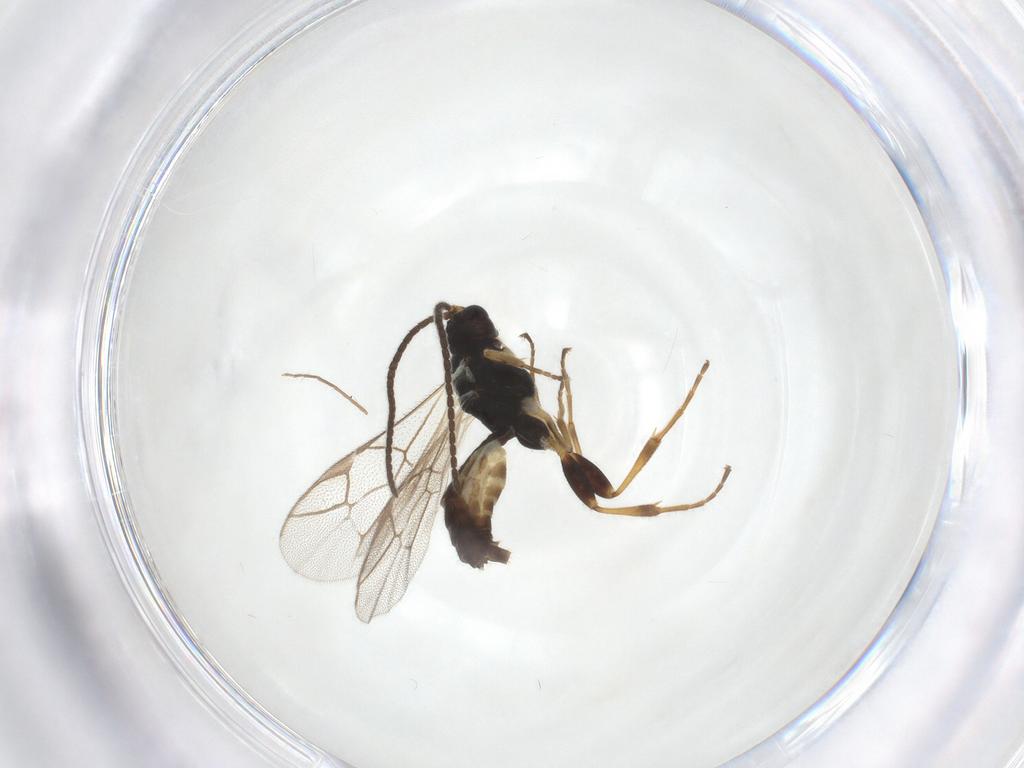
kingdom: Animalia
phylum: Arthropoda
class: Insecta
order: Hymenoptera
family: Ichneumonidae
